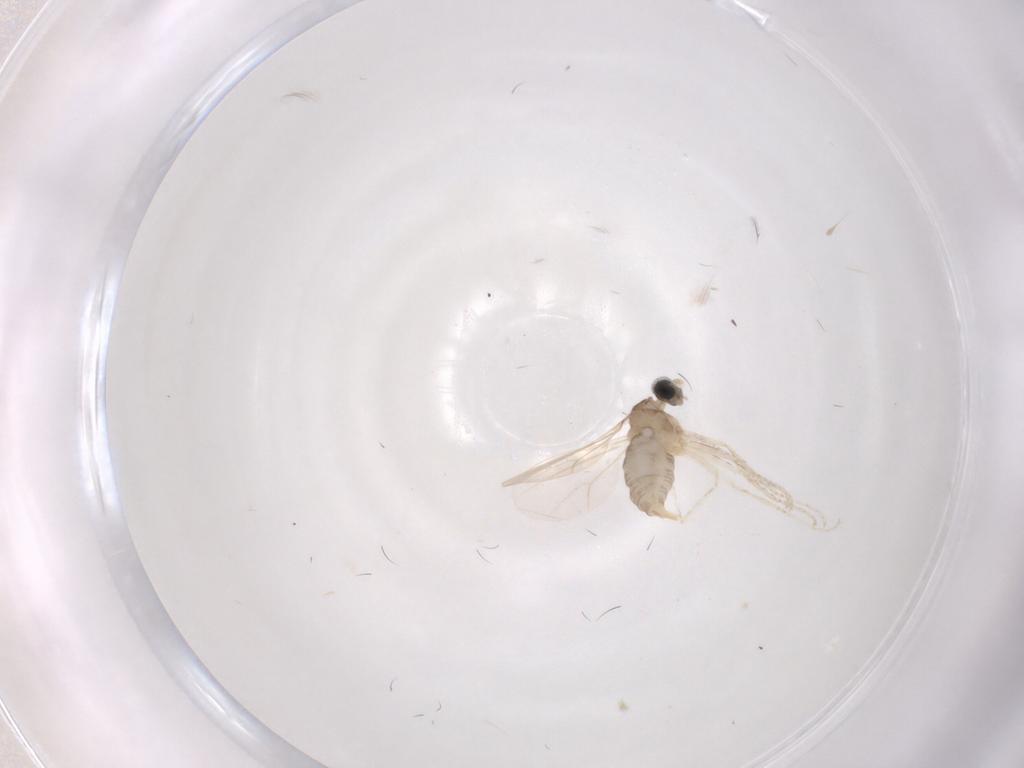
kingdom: Animalia
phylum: Arthropoda
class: Insecta
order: Diptera
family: Cecidomyiidae
